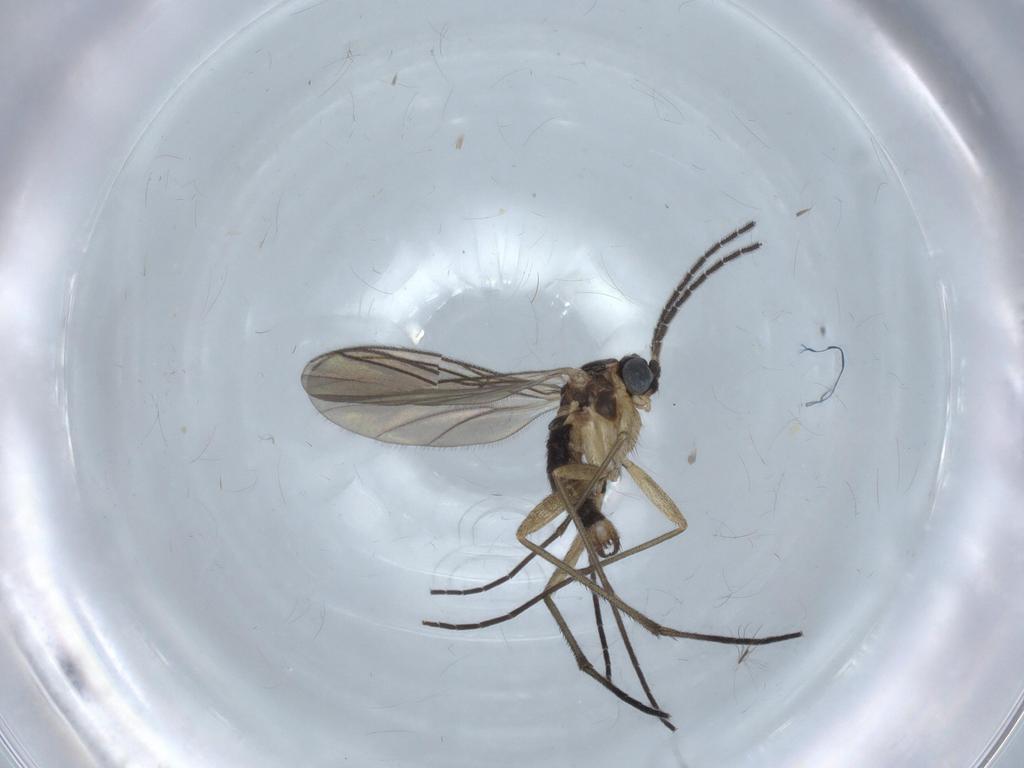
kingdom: Animalia
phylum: Arthropoda
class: Insecta
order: Diptera
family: Sciaridae
